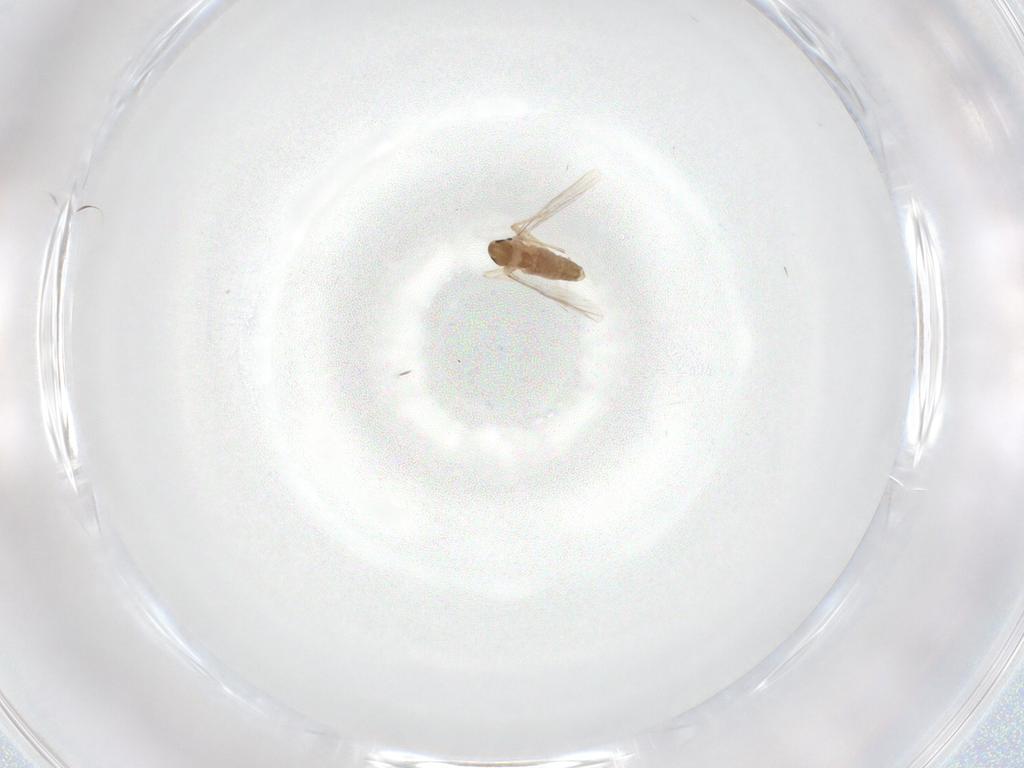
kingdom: Animalia
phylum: Arthropoda
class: Insecta
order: Diptera
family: Chironomidae
